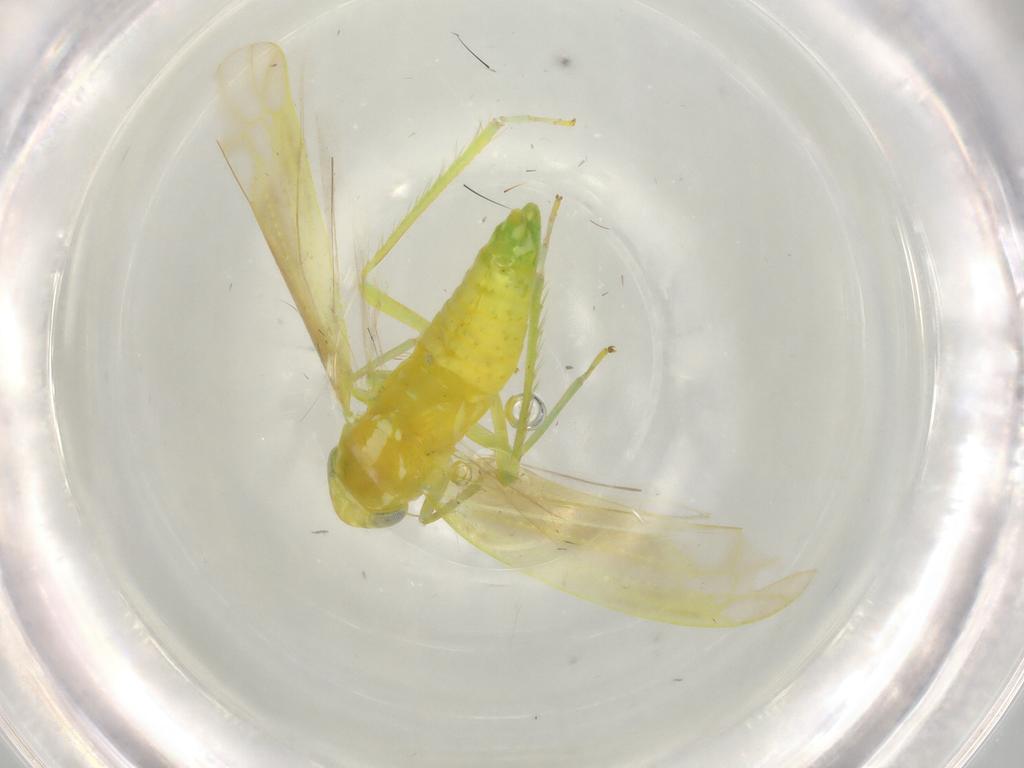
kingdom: Animalia
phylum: Arthropoda
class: Insecta
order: Hemiptera
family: Cicadellidae
